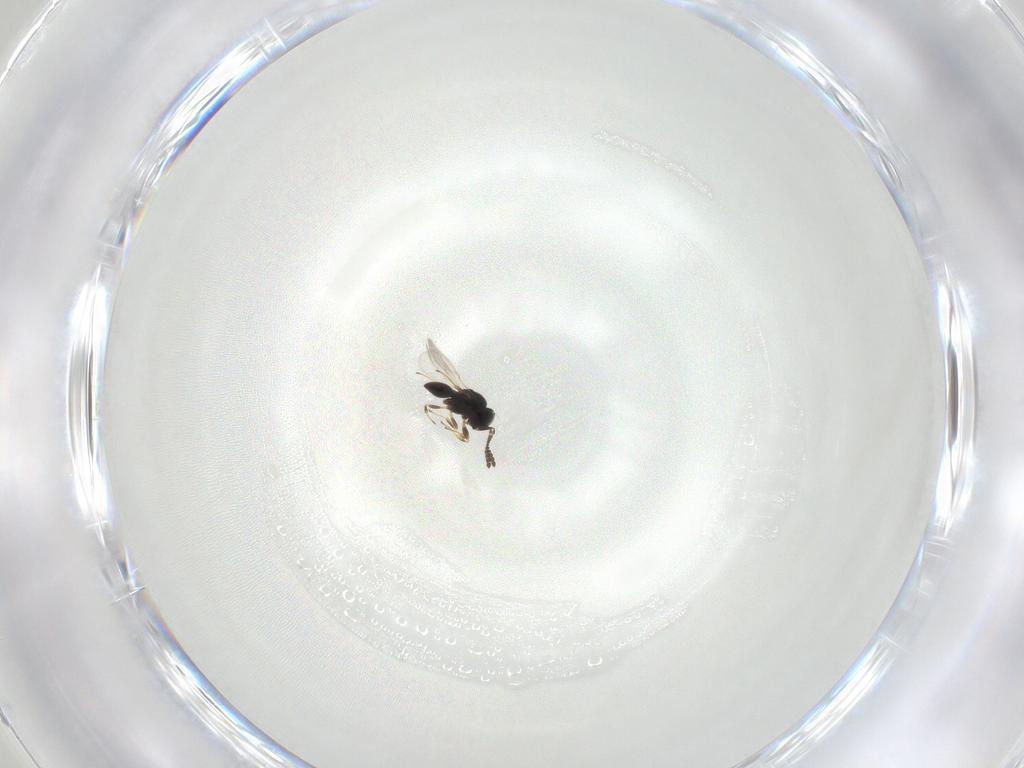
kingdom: Animalia
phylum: Arthropoda
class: Insecta
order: Hymenoptera
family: Scelionidae
